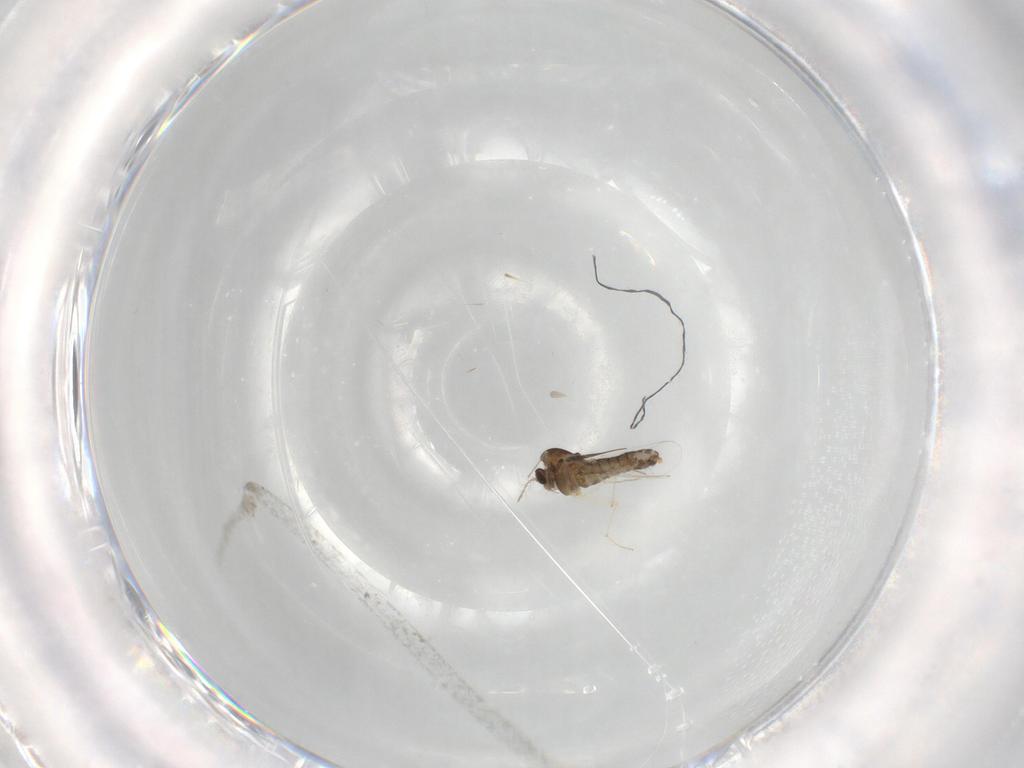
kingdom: Animalia
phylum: Arthropoda
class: Insecta
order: Diptera
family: Chironomidae
